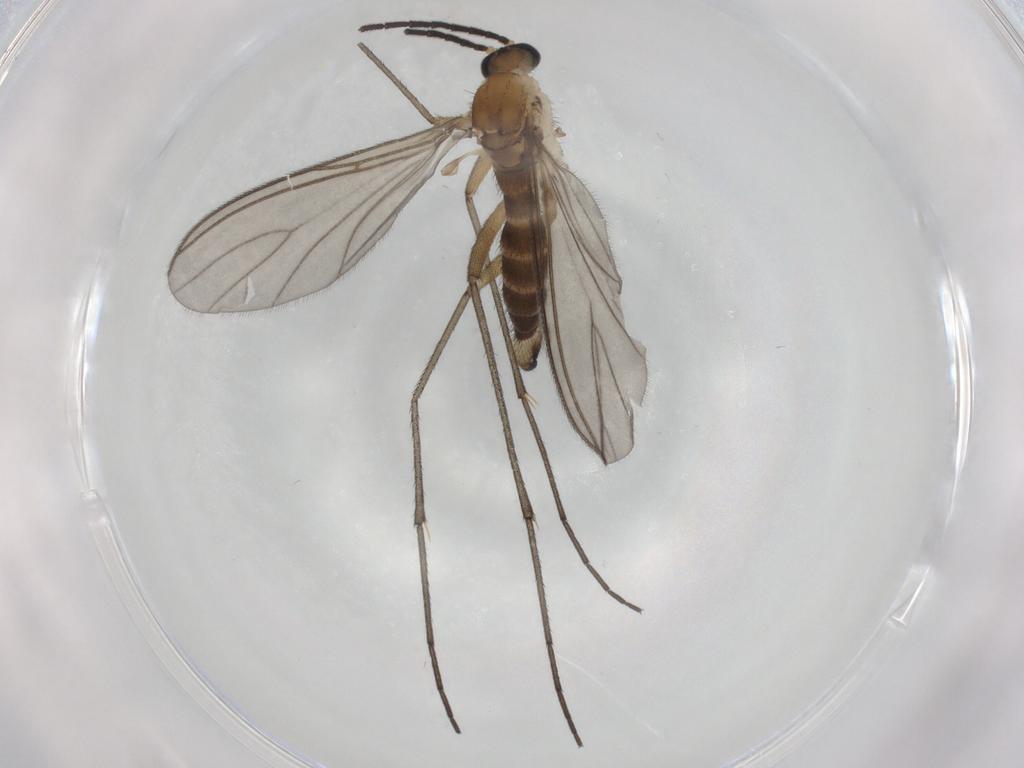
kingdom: Animalia
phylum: Arthropoda
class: Insecta
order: Diptera
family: Sciaridae
